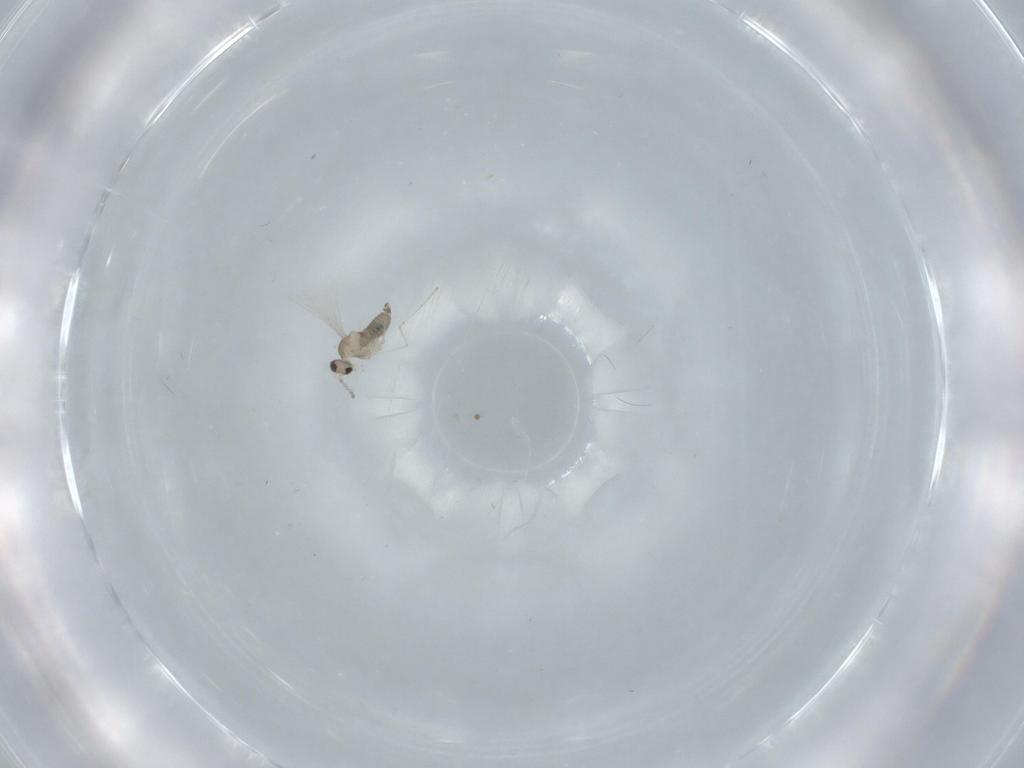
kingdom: Animalia
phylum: Arthropoda
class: Insecta
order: Diptera
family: Cecidomyiidae
